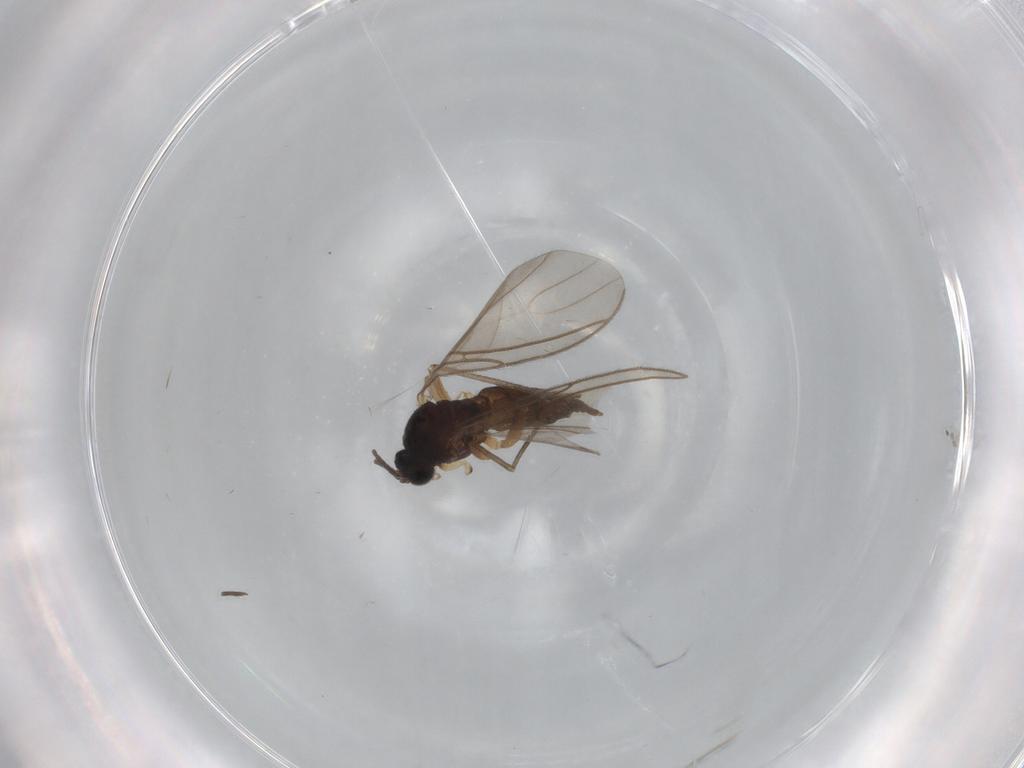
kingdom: Animalia
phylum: Arthropoda
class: Insecta
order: Diptera
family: Sciaridae
